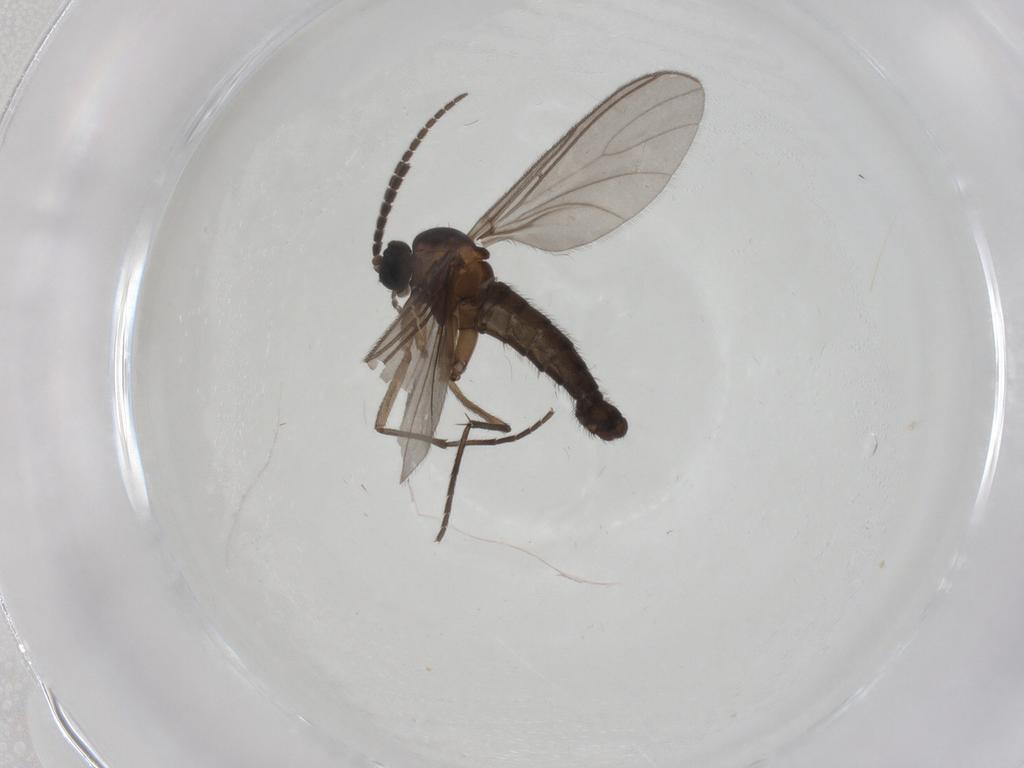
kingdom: Animalia
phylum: Arthropoda
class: Insecta
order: Diptera
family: Sciaridae
